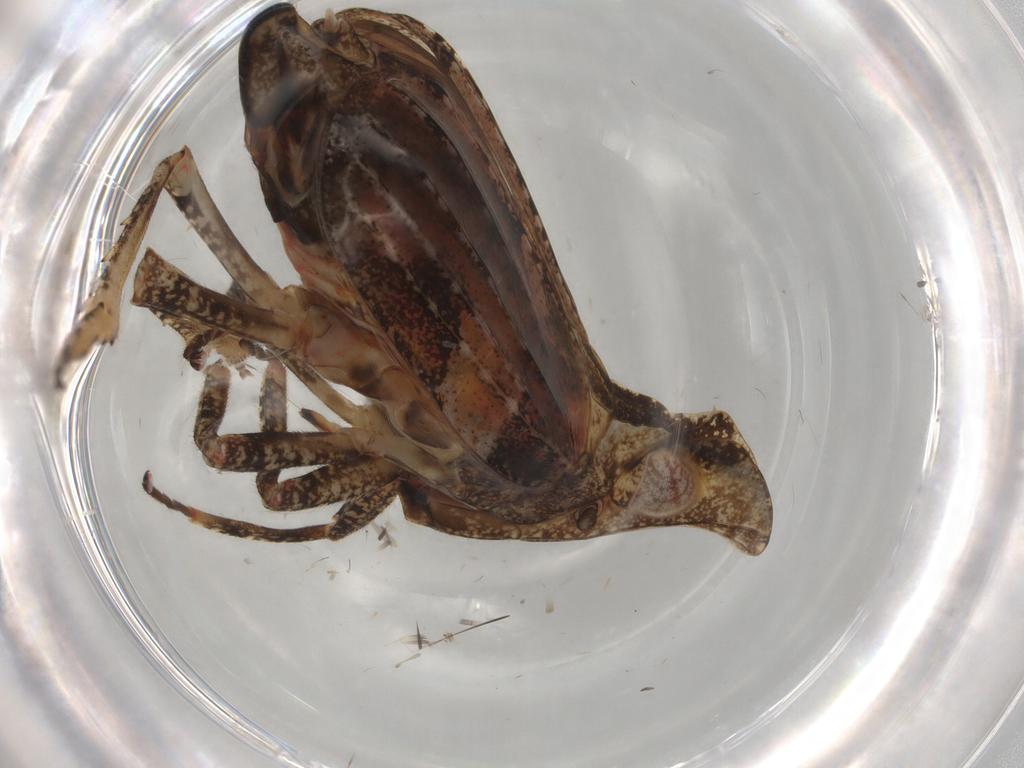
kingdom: Animalia
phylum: Arthropoda
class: Insecta
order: Hemiptera
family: Tropiduchidae
